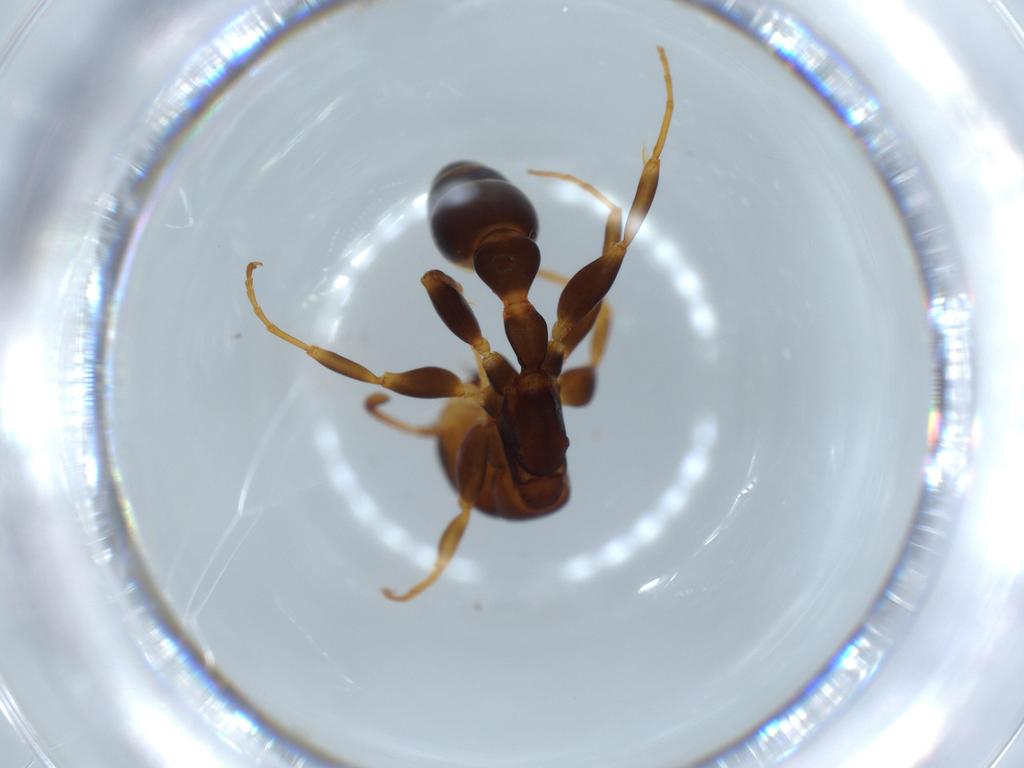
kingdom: Animalia
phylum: Arthropoda
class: Insecta
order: Hymenoptera
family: Formicidae
